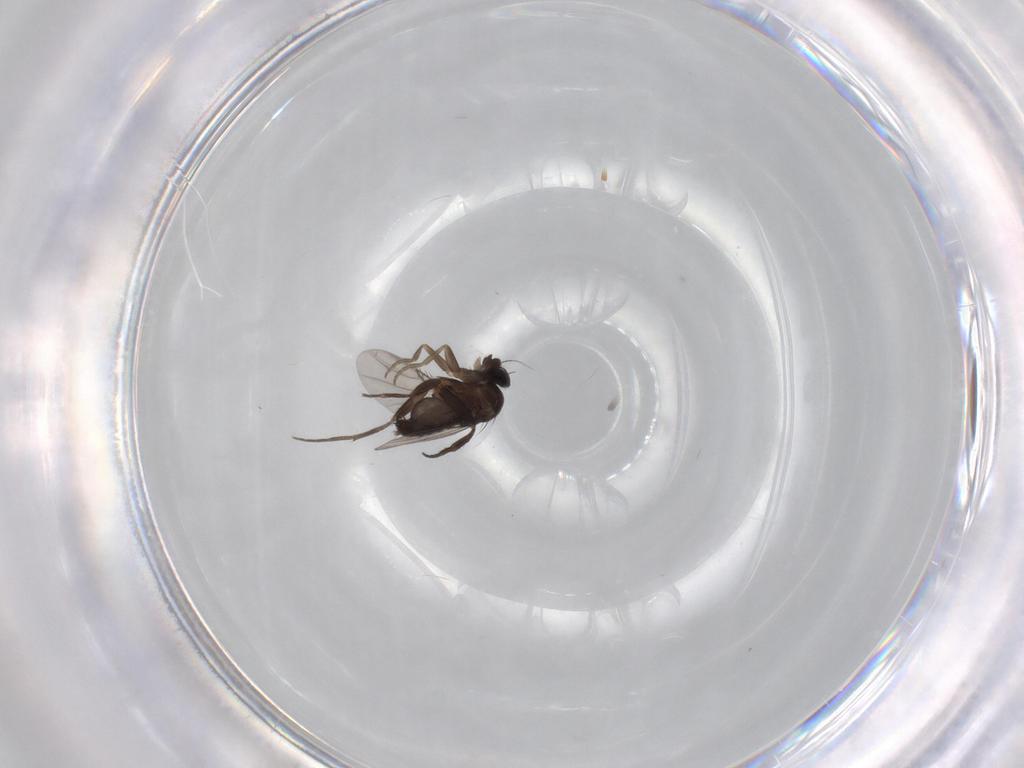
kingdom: Animalia
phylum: Arthropoda
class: Insecta
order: Diptera
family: Phoridae
